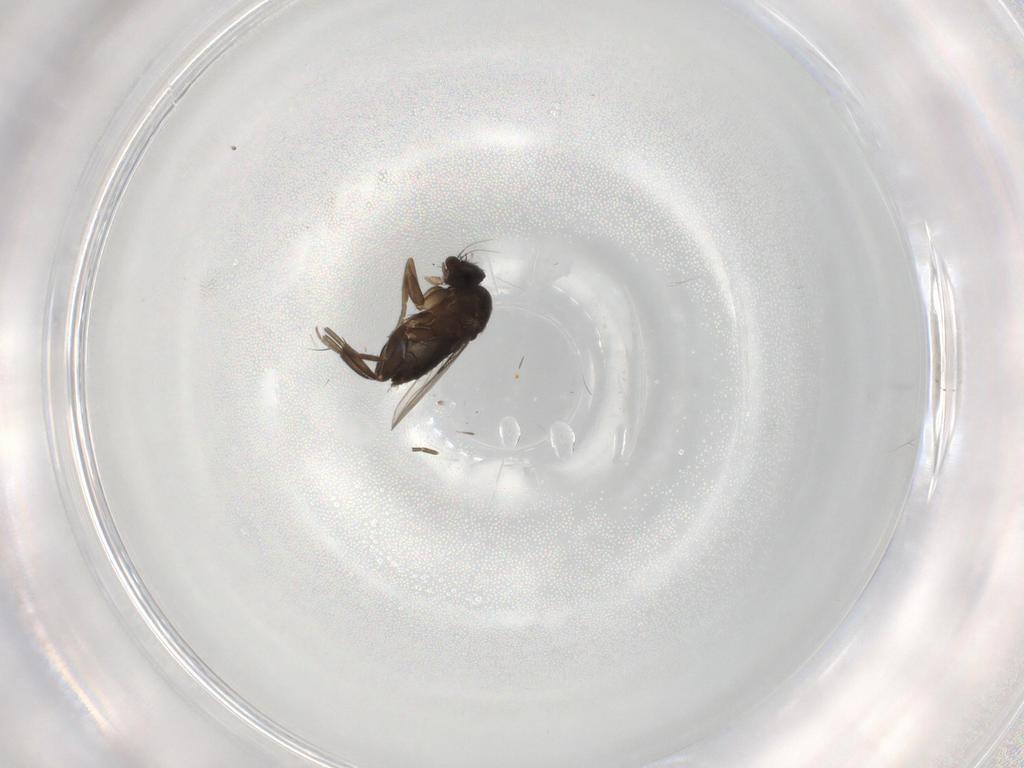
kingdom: Animalia
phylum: Arthropoda
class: Insecta
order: Diptera
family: Phoridae
